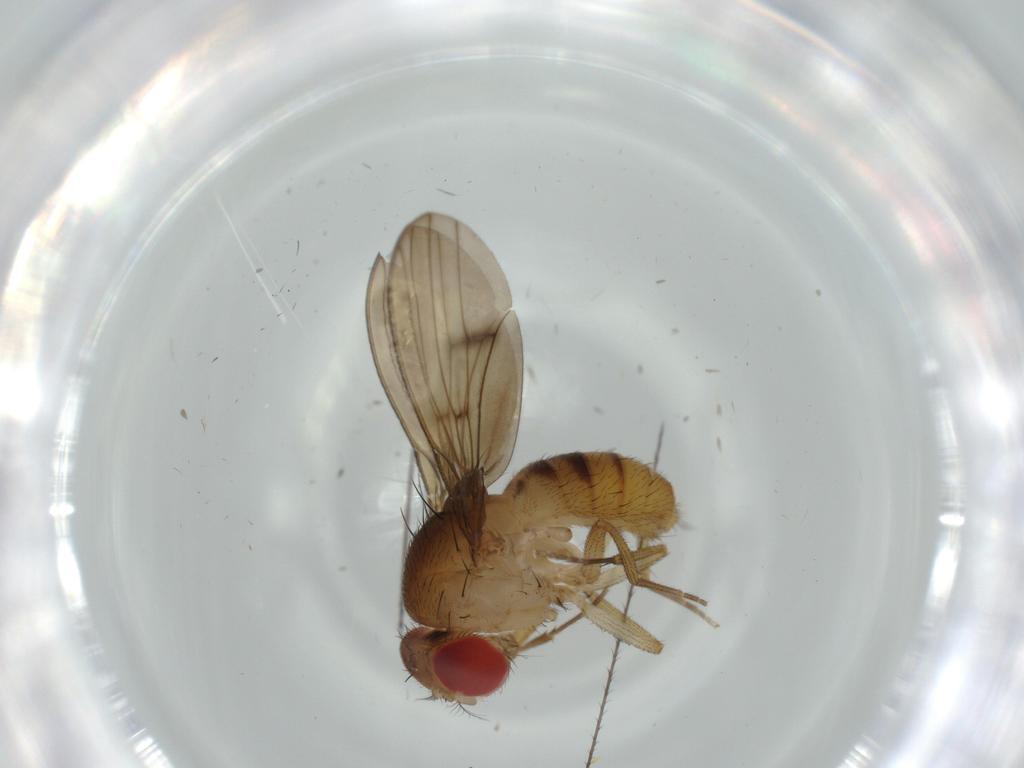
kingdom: Animalia
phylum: Arthropoda
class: Insecta
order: Diptera
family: Drosophilidae
